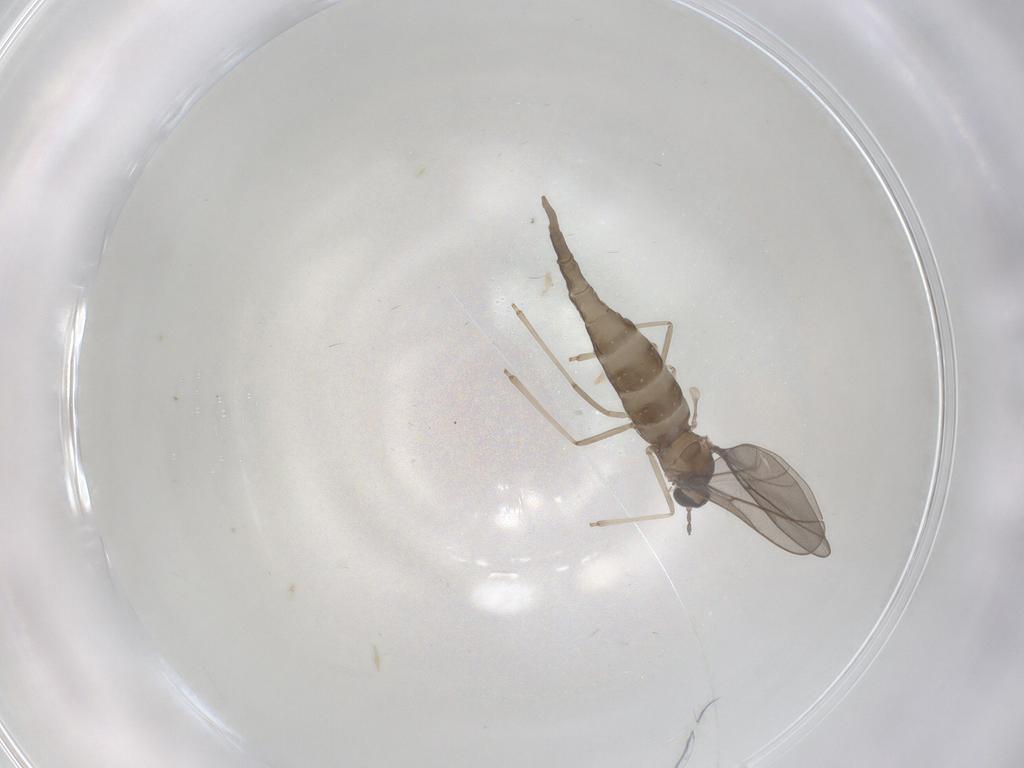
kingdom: Animalia
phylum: Arthropoda
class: Insecta
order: Diptera
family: Cecidomyiidae
